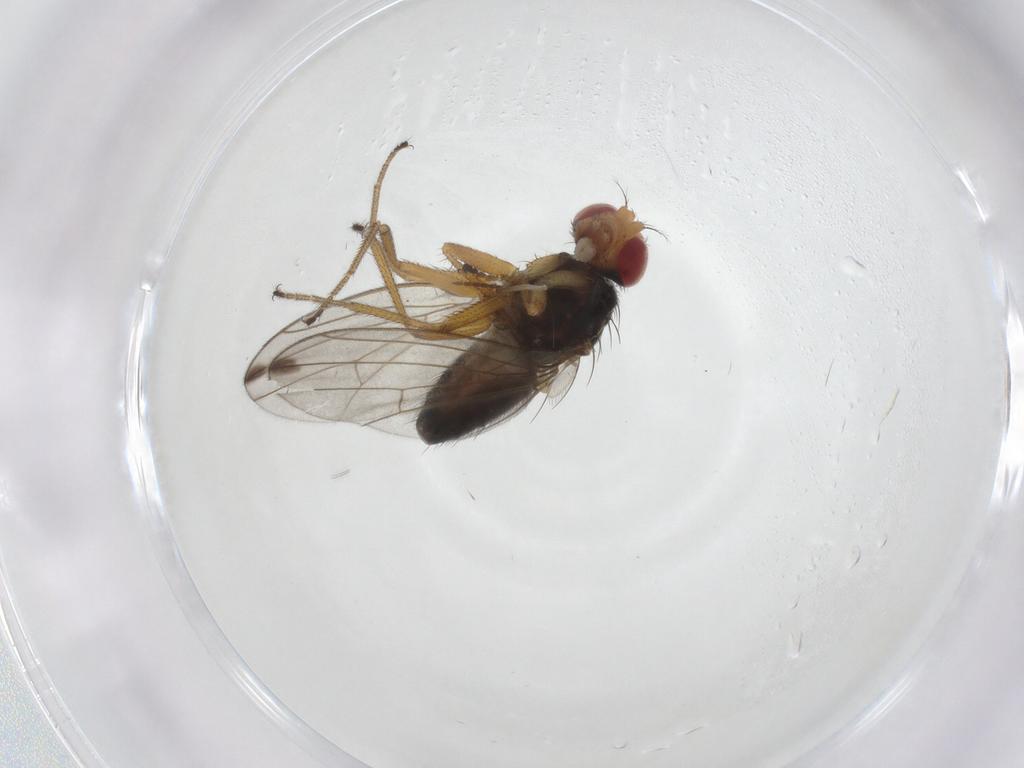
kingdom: Animalia
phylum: Arthropoda
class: Insecta
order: Diptera
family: Drosophilidae
